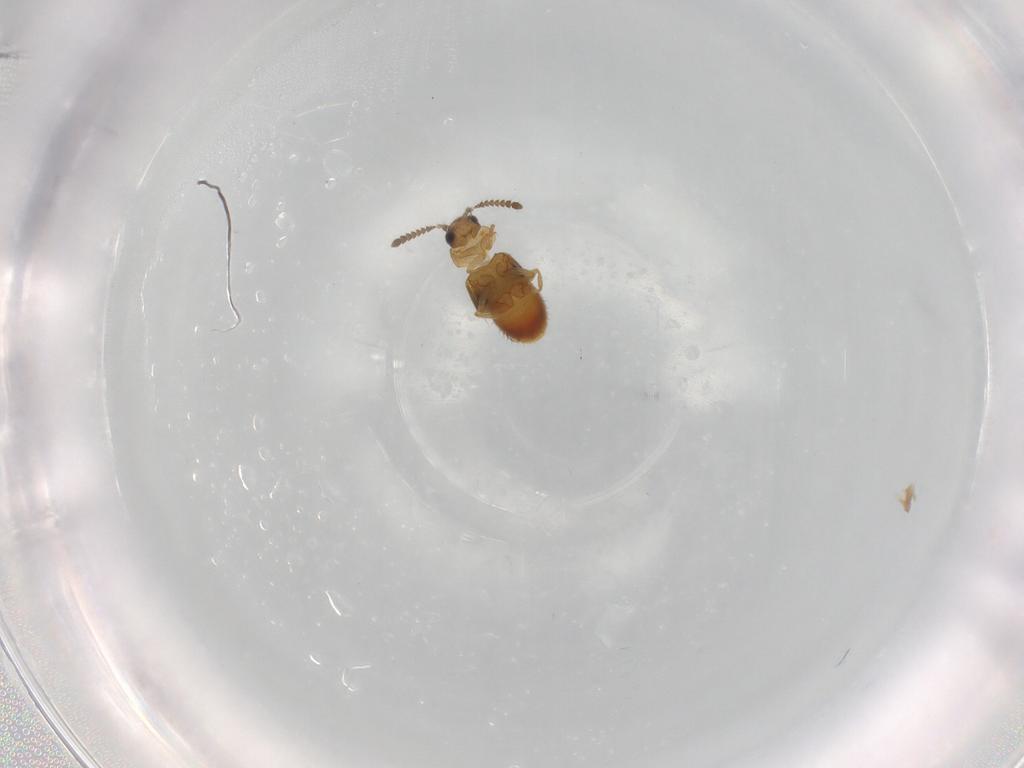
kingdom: Animalia
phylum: Arthropoda
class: Insecta
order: Coleoptera
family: Staphylinidae
